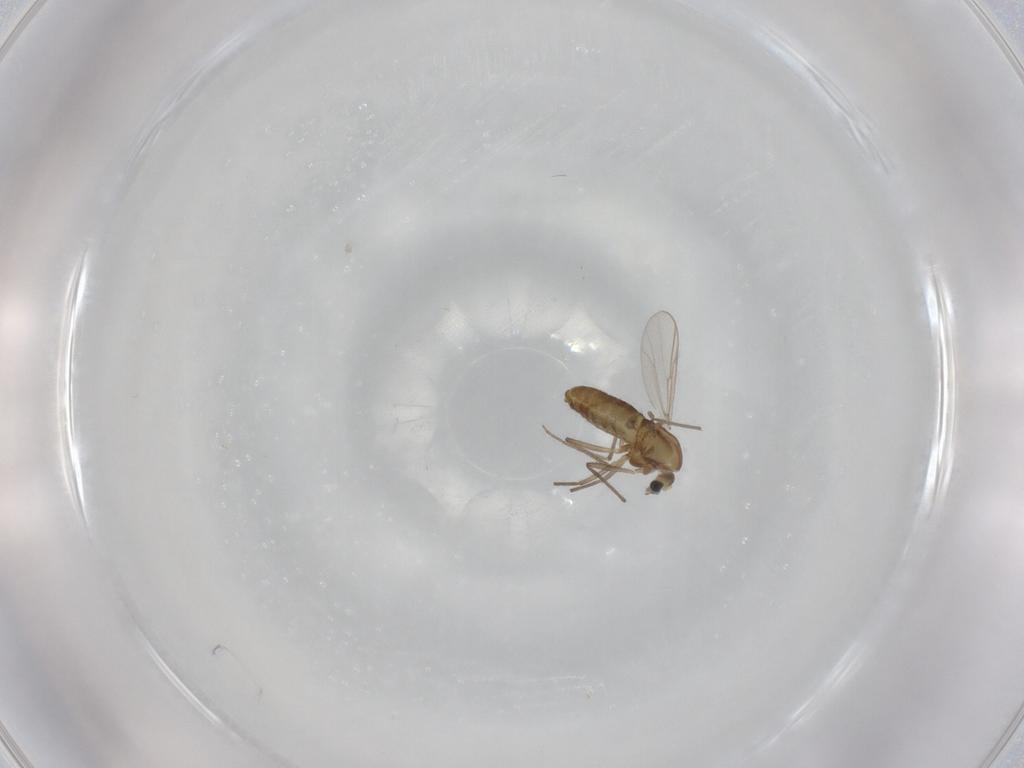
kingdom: Animalia
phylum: Arthropoda
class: Insecta
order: Diptera
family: Chironomidae
